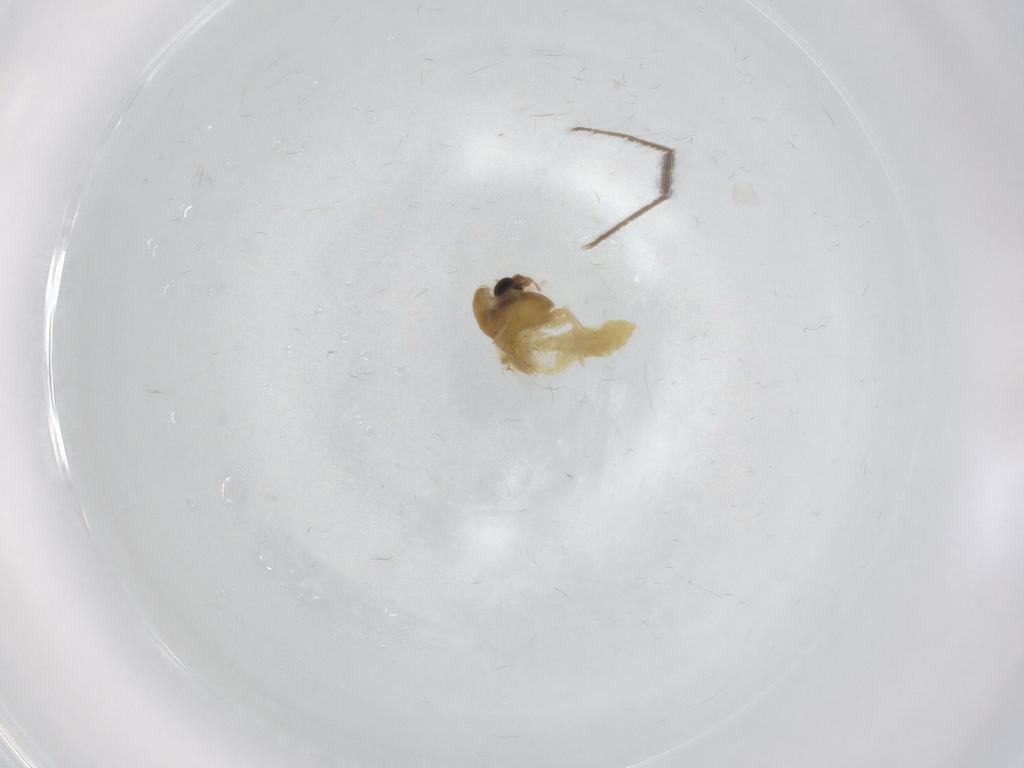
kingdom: Animalia
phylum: Arthropoda
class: Insecta
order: Diptera
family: Chironomidae
